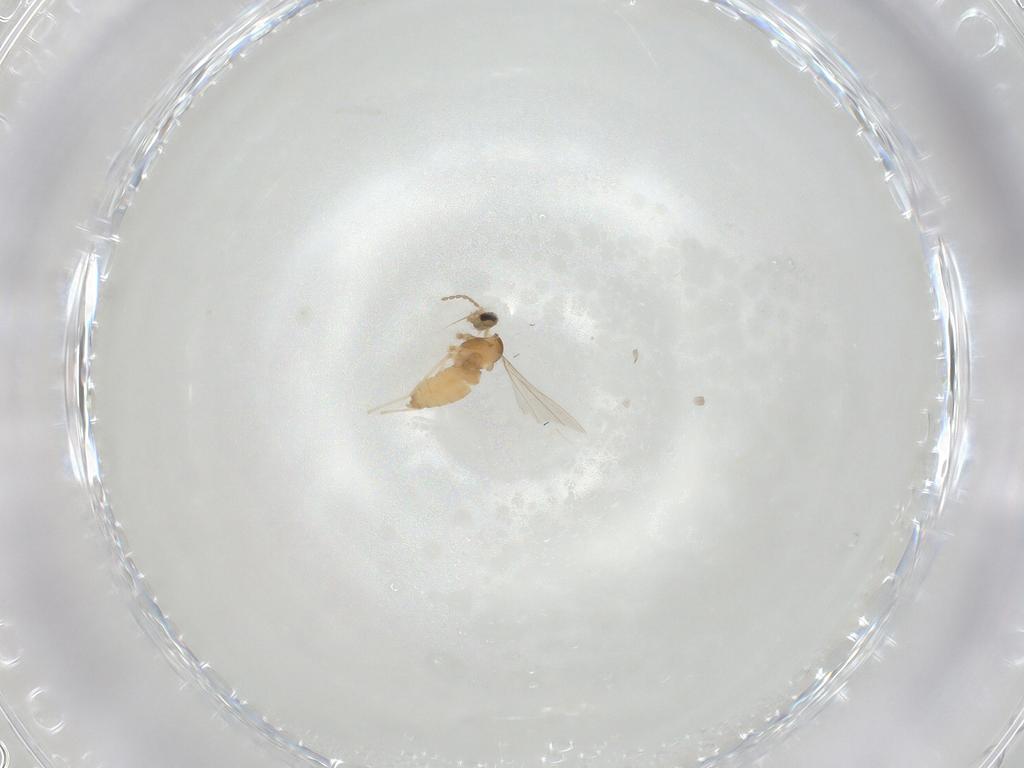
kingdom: Animalia
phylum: Arthropoda
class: Insecta
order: Diptera
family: Cecidomyiidae
